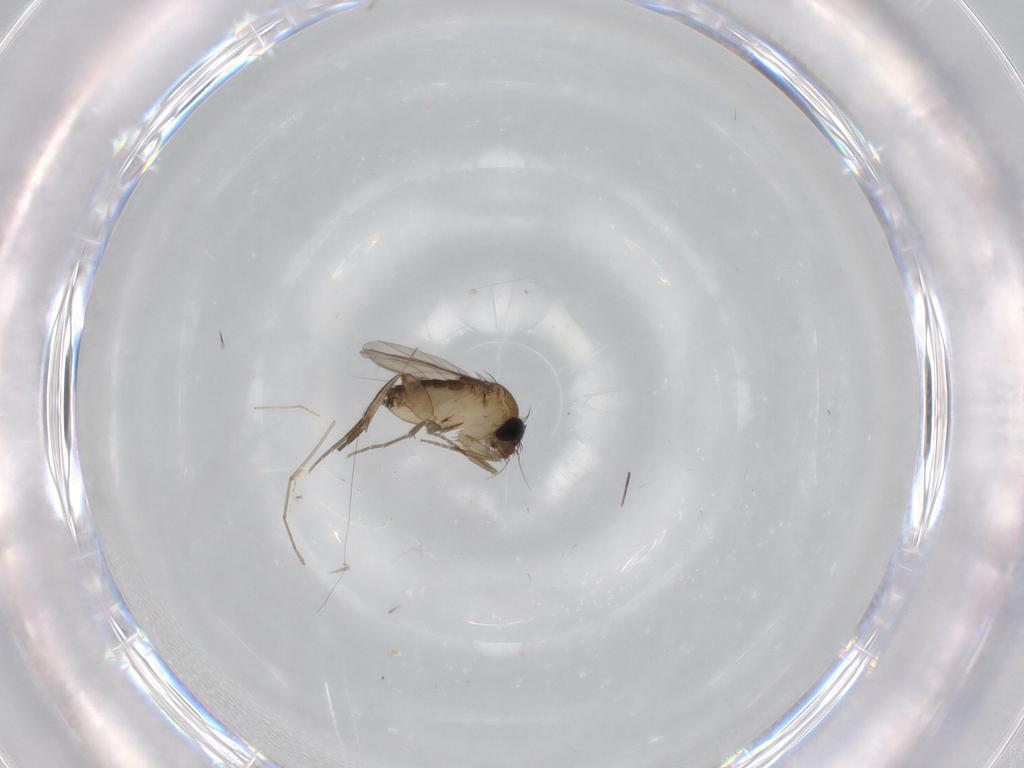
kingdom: Animalia
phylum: Arthropoda
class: Insecta
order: Diptera
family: Phoridae
